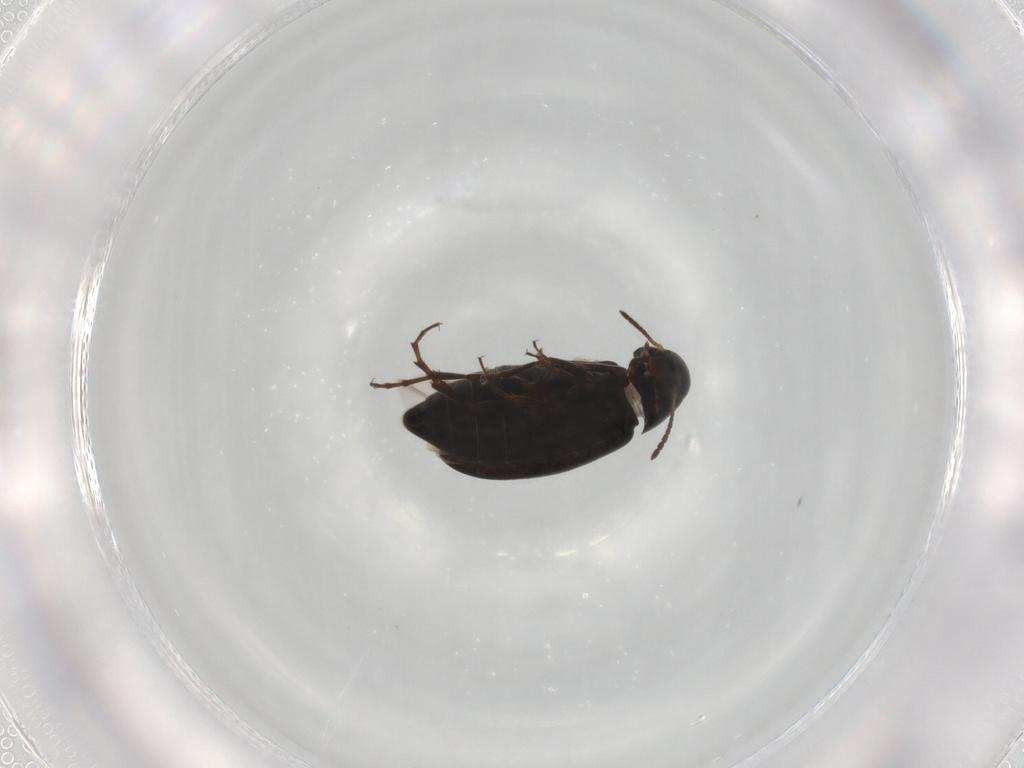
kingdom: Animalia
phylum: Arthropoda
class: Insecta
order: Coleoptera
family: Scraptiidae
